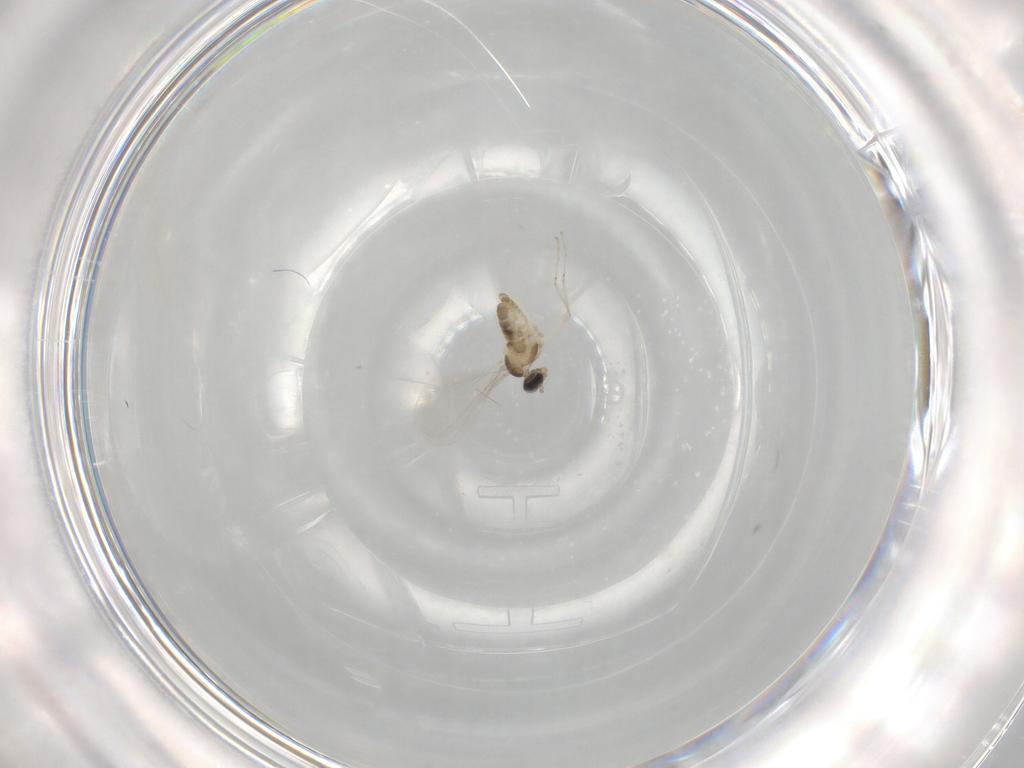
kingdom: Animalia
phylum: Arthropoda
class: Insecta
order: Diptera
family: Cecidomyiidae
